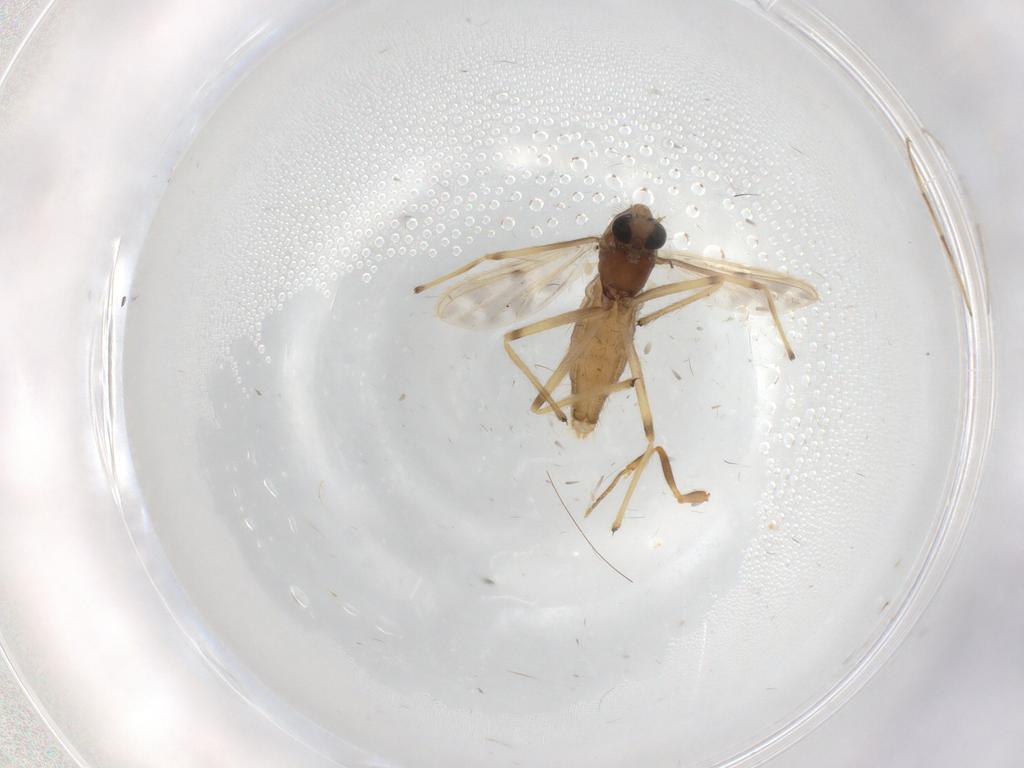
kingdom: Animalia
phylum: Arthropoda
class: Insecta
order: Diptera
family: Chironomidae
